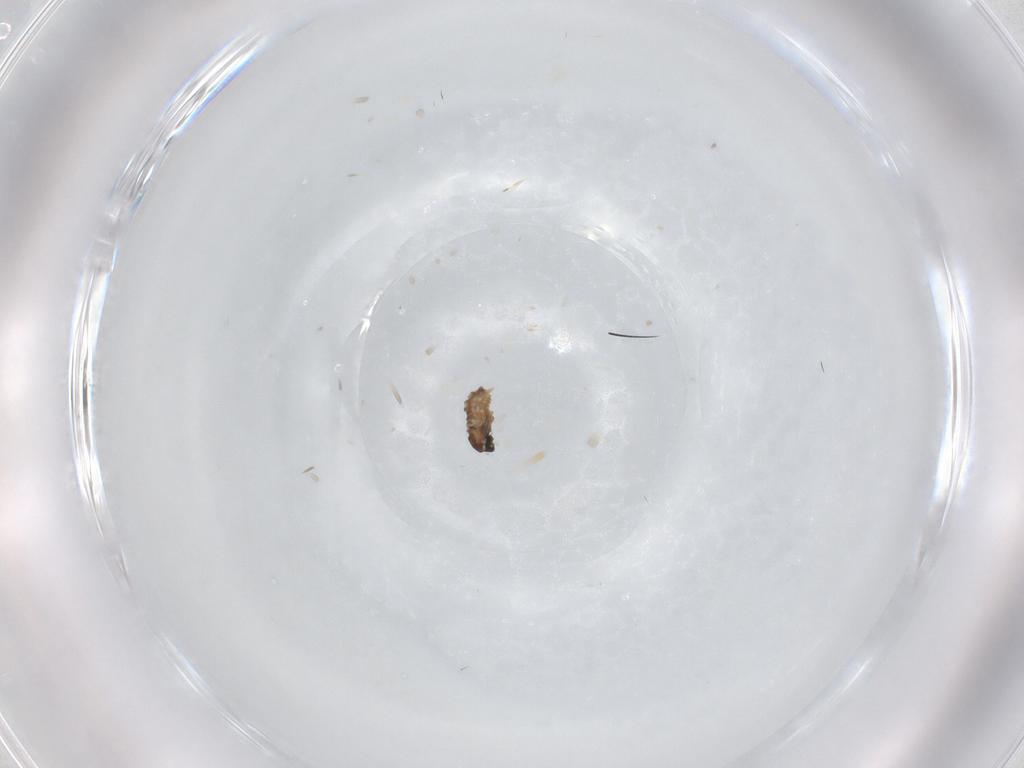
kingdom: Animalia
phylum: Arthropoda
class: Insecta
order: Diptera
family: Cecidomyiidae
